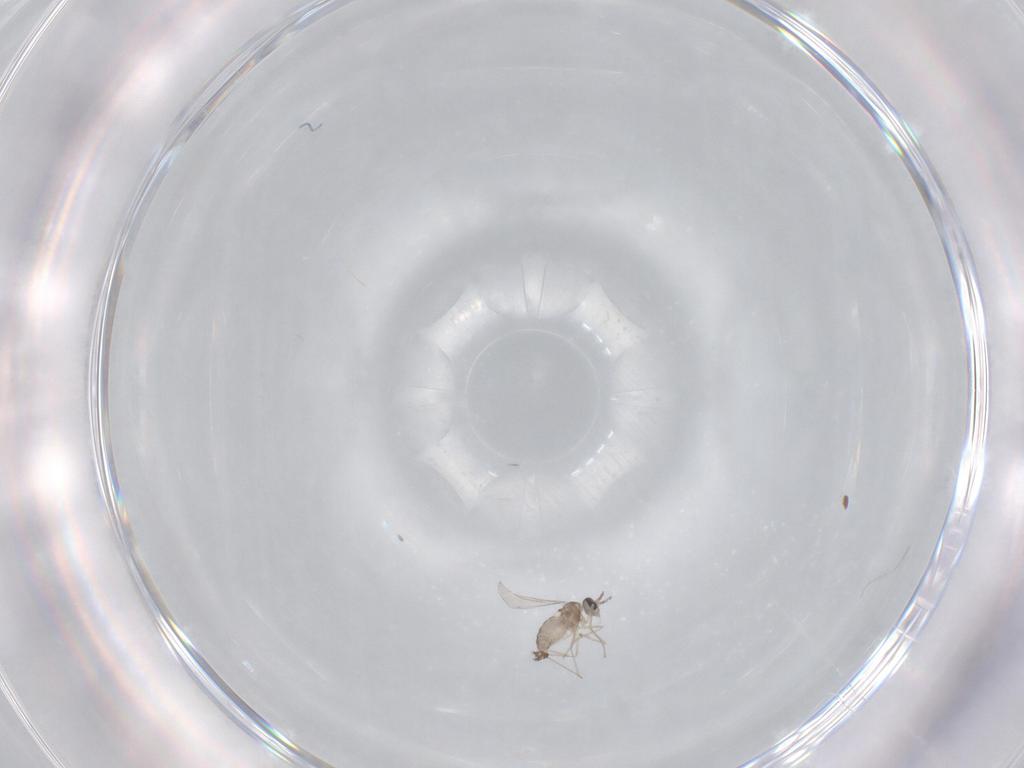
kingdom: Animalia
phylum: Arthropoda
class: Insecta
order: Diptera
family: Cecidomyiidae
